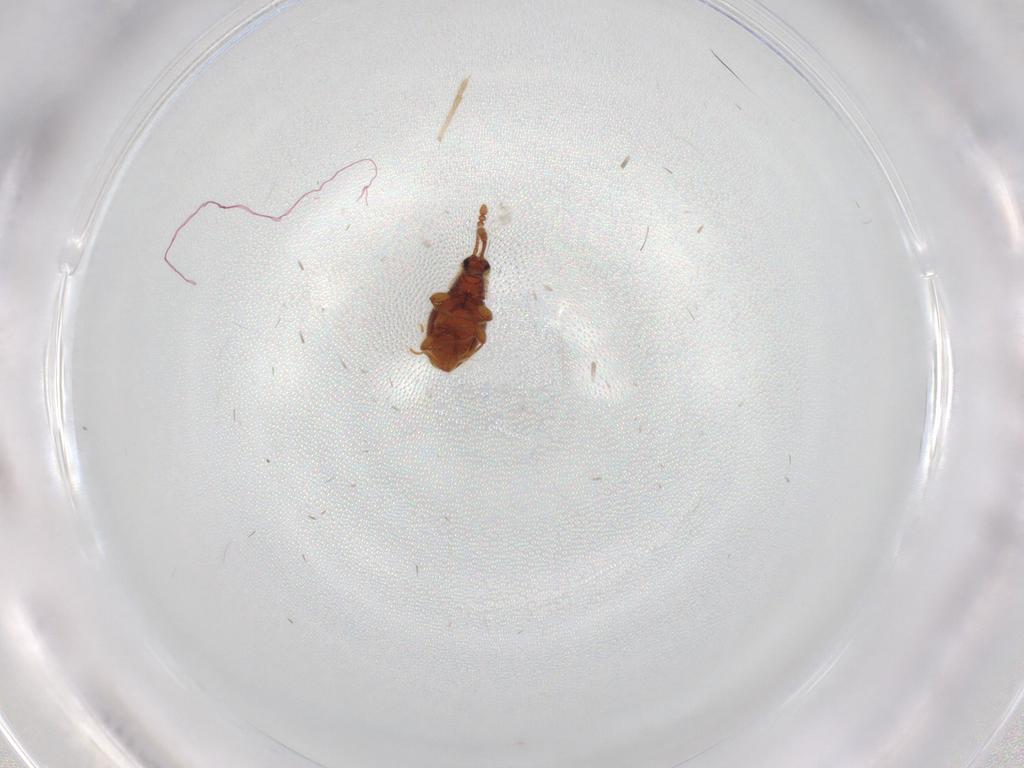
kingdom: Animalia
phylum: Arthropoda
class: Insecta
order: Coleoptera
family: Staphylinidae
